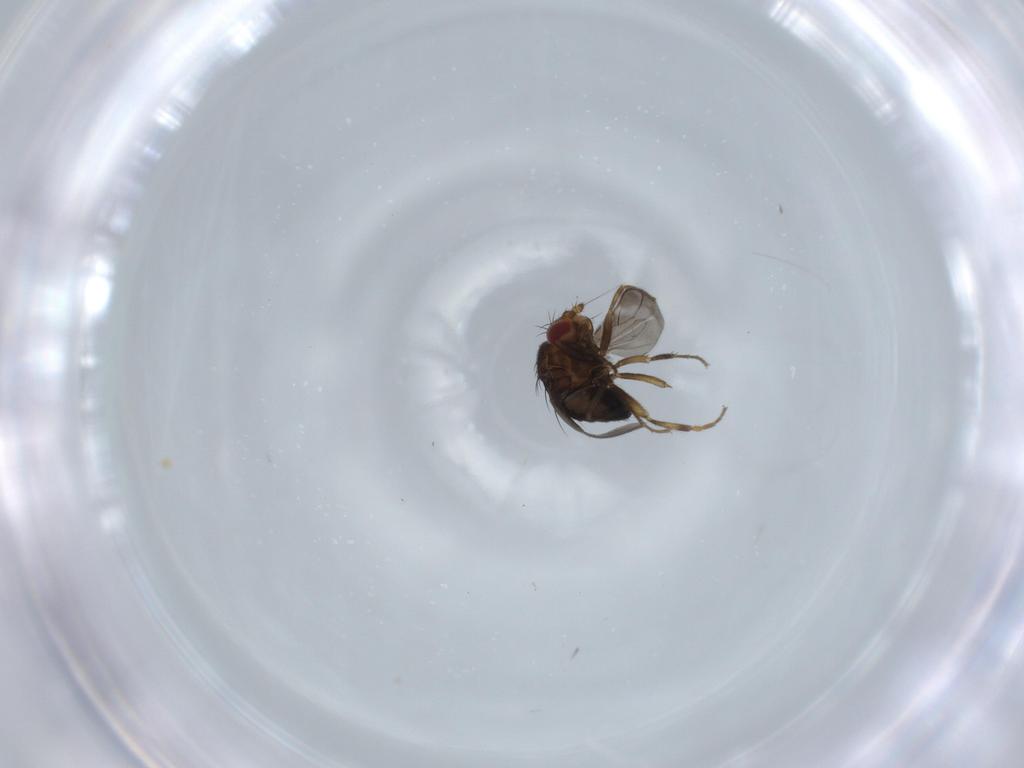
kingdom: Animalia
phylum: Arthropoda
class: Insecta
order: Diptera
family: Sphaeroceridae
